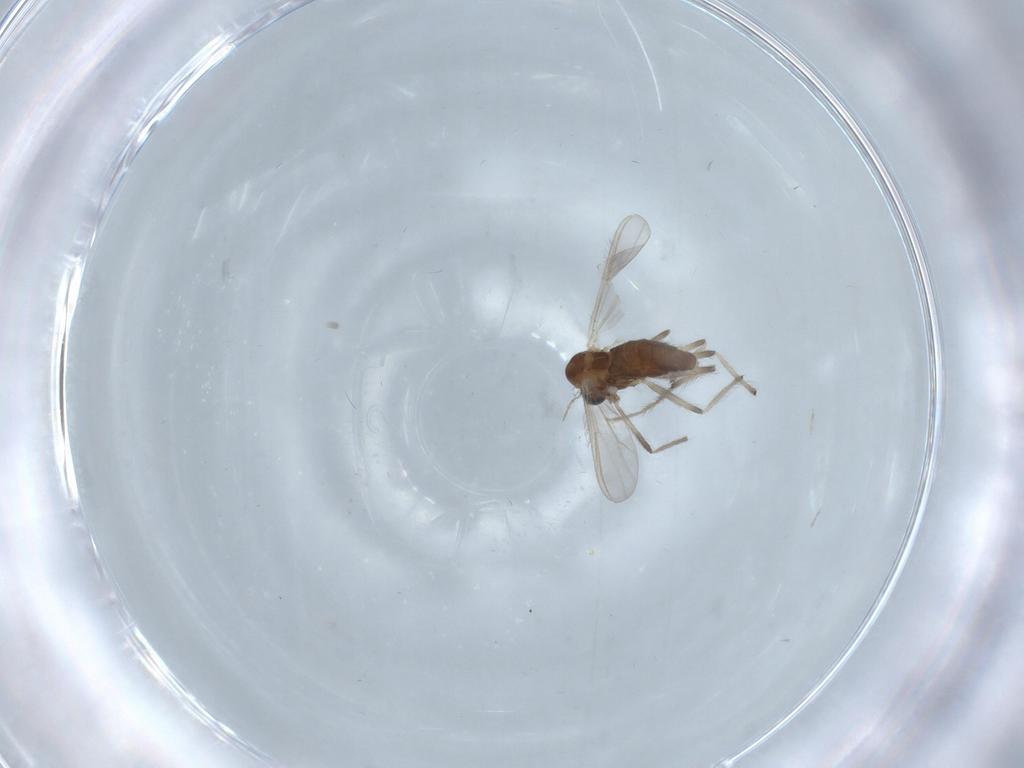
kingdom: Animalia
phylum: Arthropoda
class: Insecta
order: Diptera
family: Chironomidae
